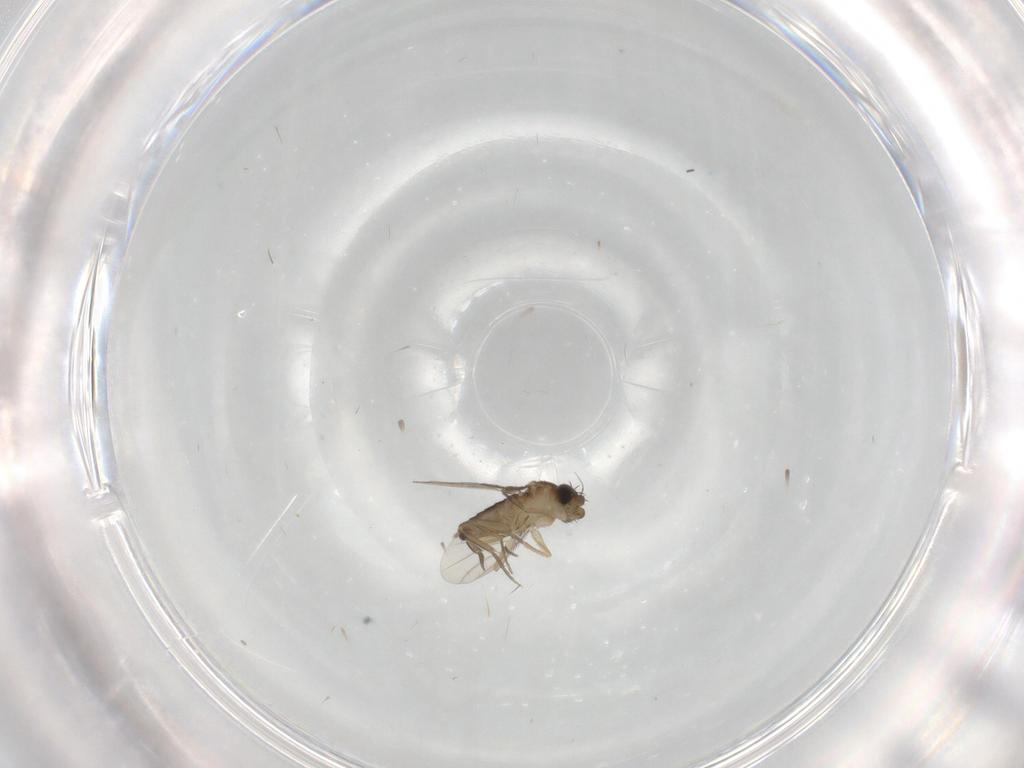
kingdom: Animalia
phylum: Arthropoda
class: Insecta
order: Diptera
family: Phoridae
